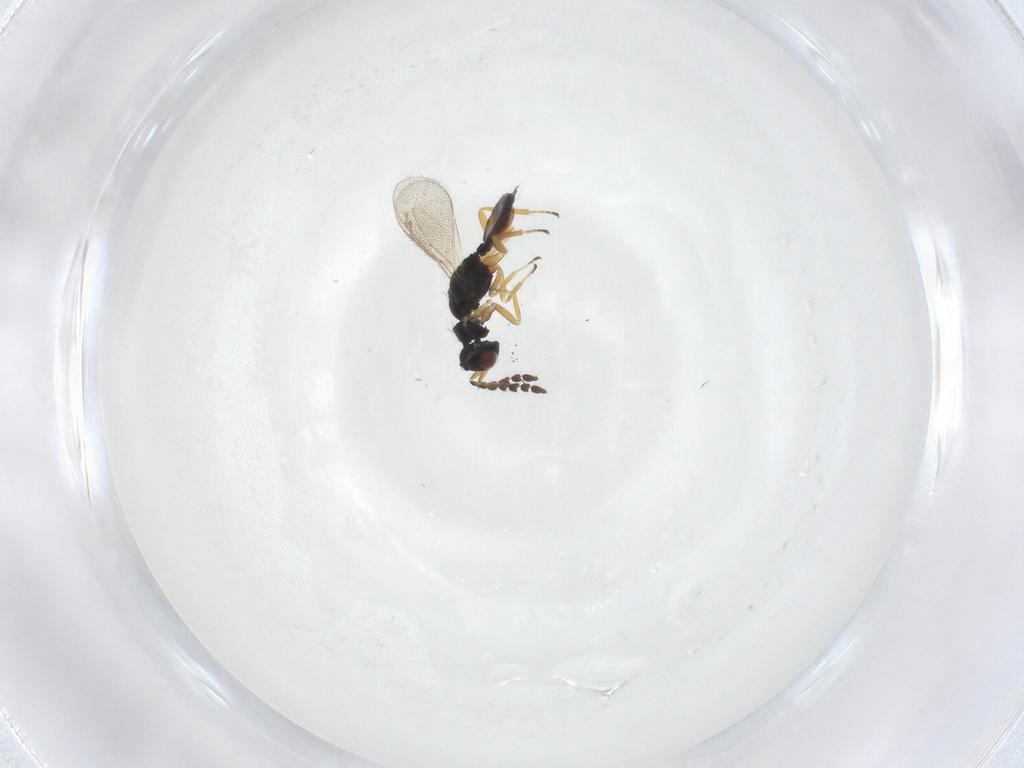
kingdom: Animalia
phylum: Arthropoda
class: Insecta
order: Hymenoptera
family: Eulophidae
